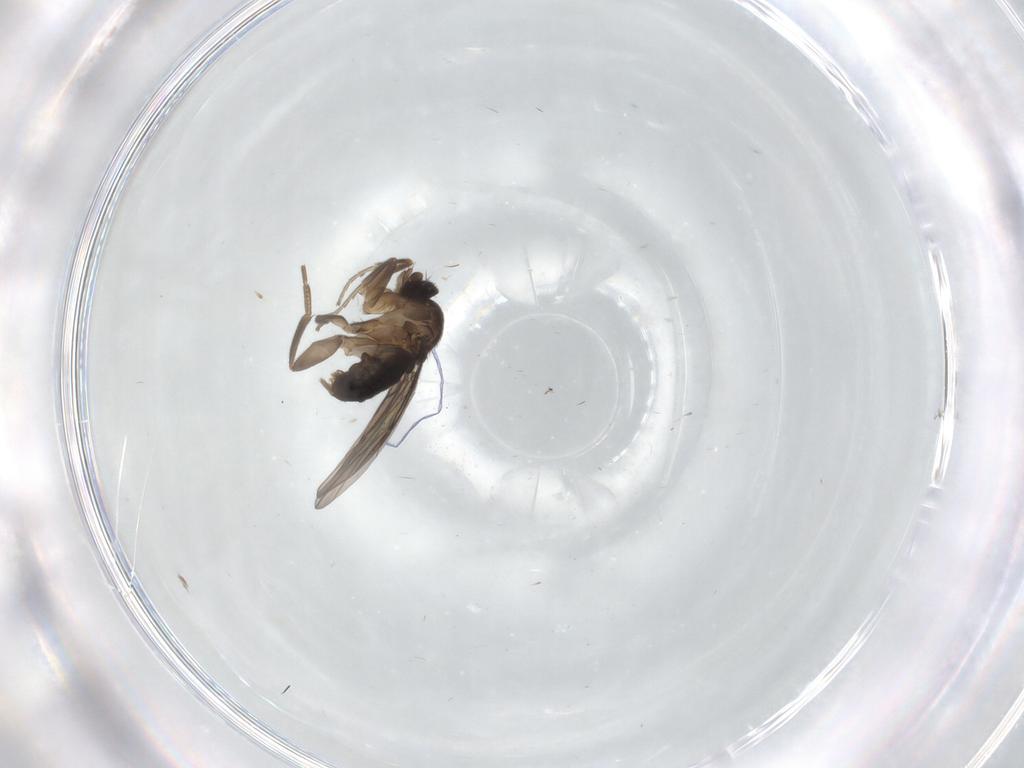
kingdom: Animalia
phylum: Arthropoda
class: Insecta
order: Diptera
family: Phoridae
